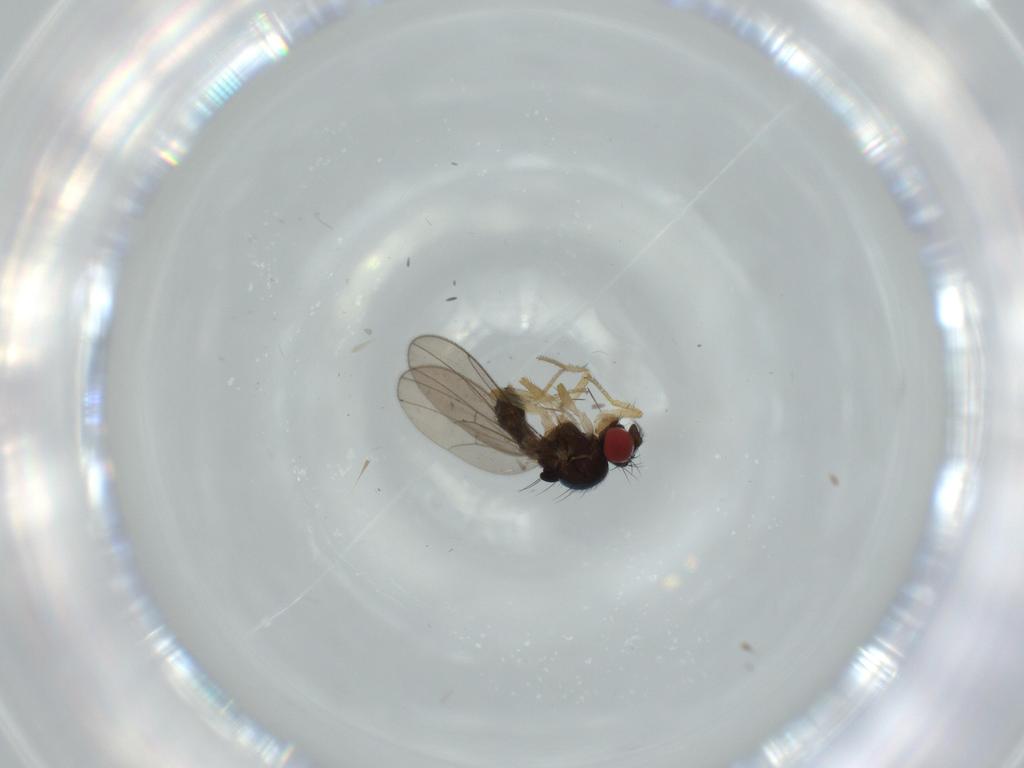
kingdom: Animalia
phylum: Arthropoda
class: Insecta
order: Diptera
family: Drosophilidae
